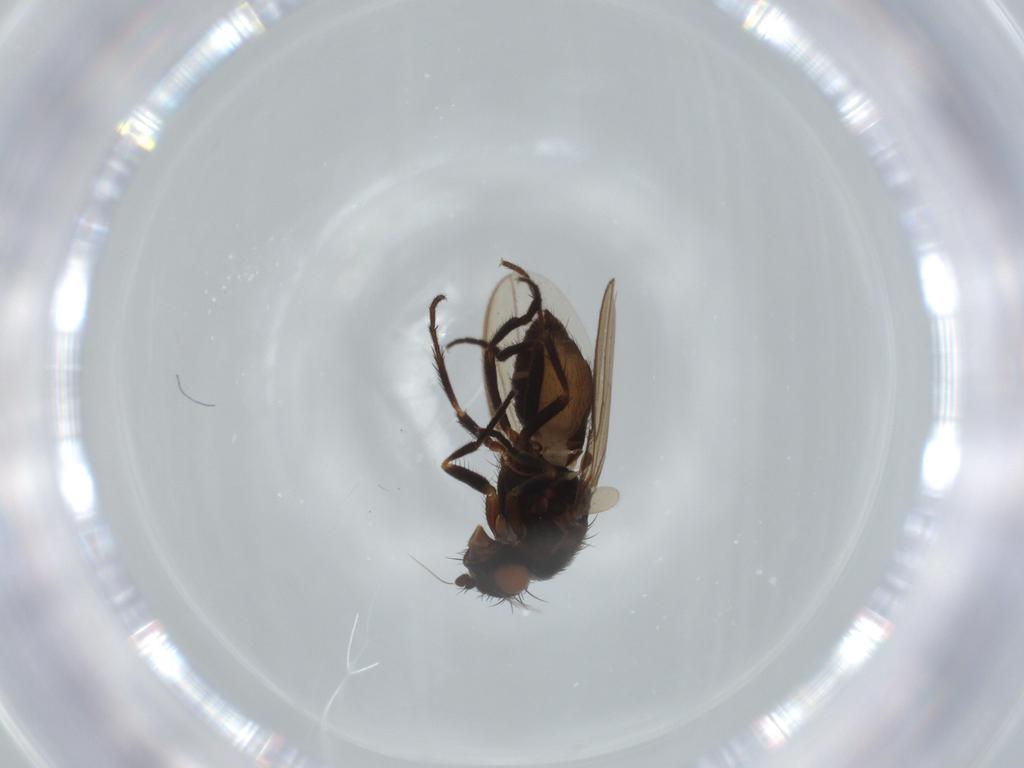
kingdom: Animalia
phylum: Arthropoda
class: Insecta
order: Diptera
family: Sphaeroceridae
